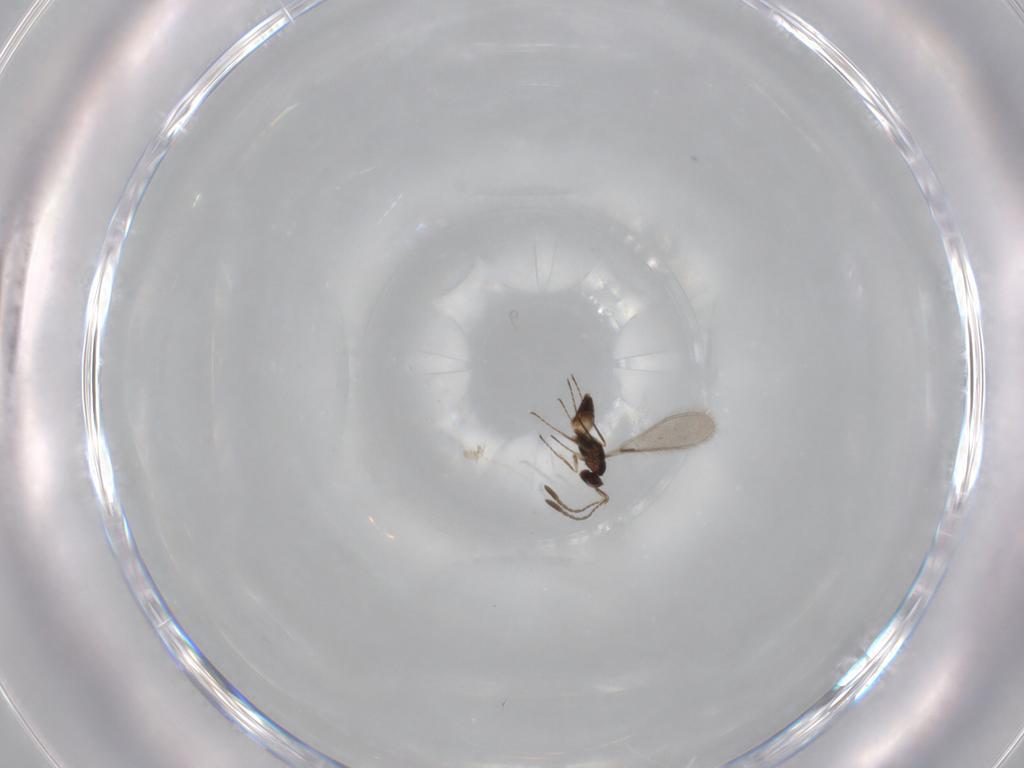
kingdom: Animalia
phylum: Arthropoda
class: Insecta
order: Hymenoptera
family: Mymaridae
